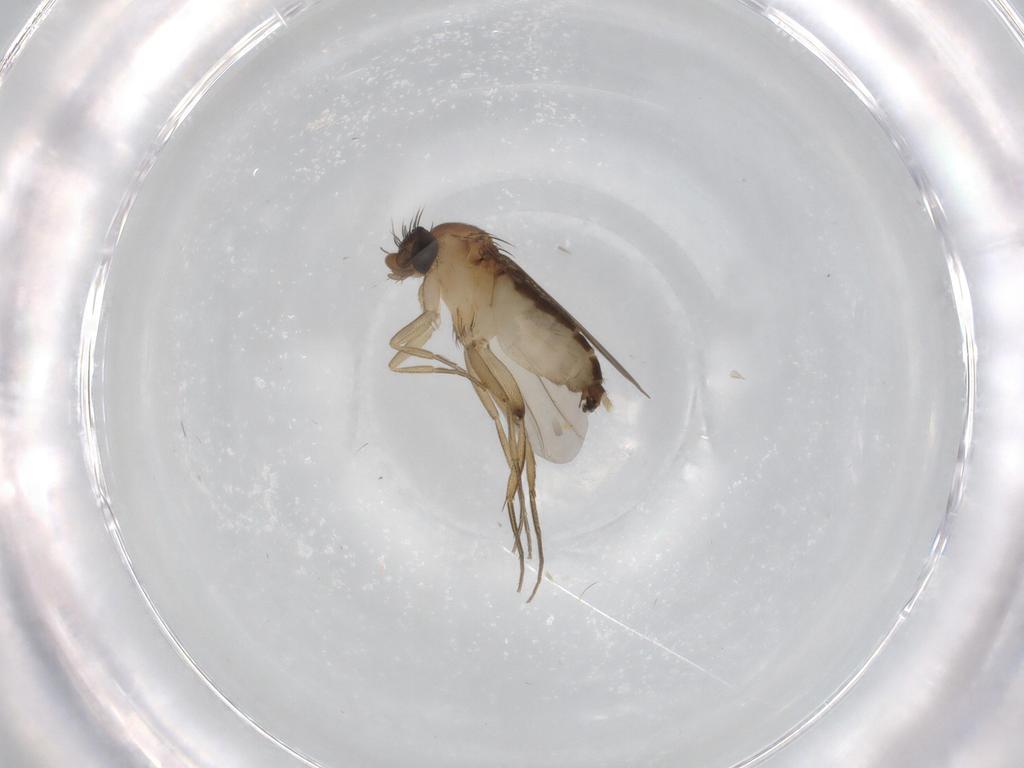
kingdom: Animalia
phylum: Arthropoda
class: Insecta
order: Diptera
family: Phoridae
